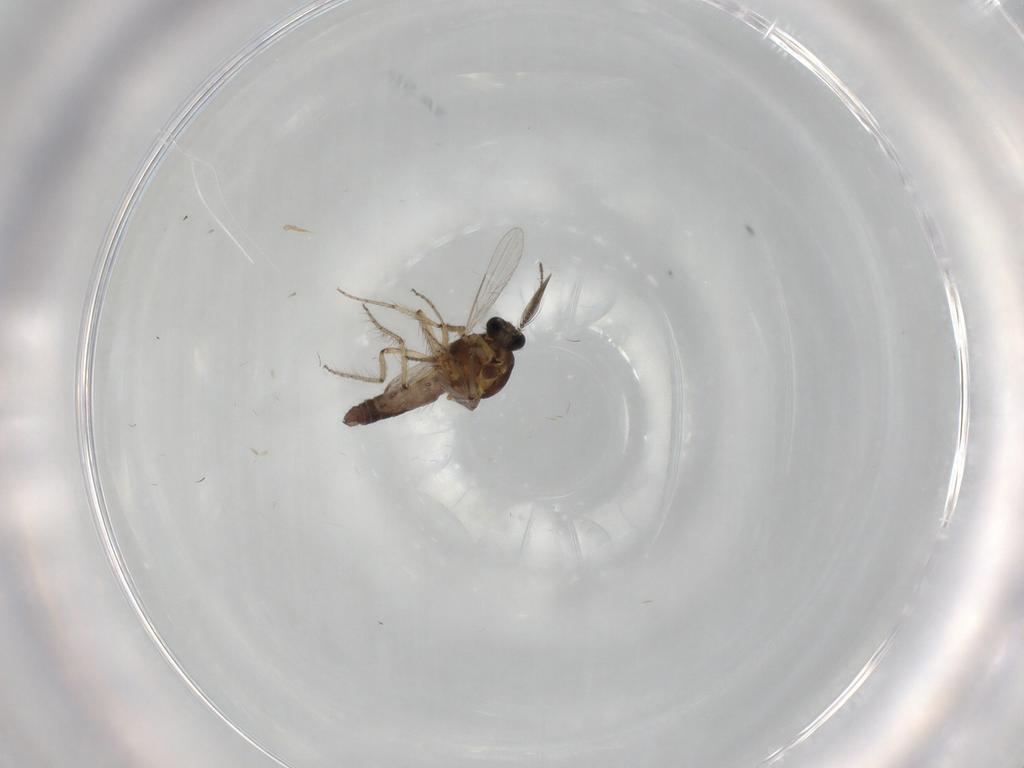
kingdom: Animalia
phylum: Arthropoda
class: Insecta
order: Diptera
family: Ceratopogonidae
